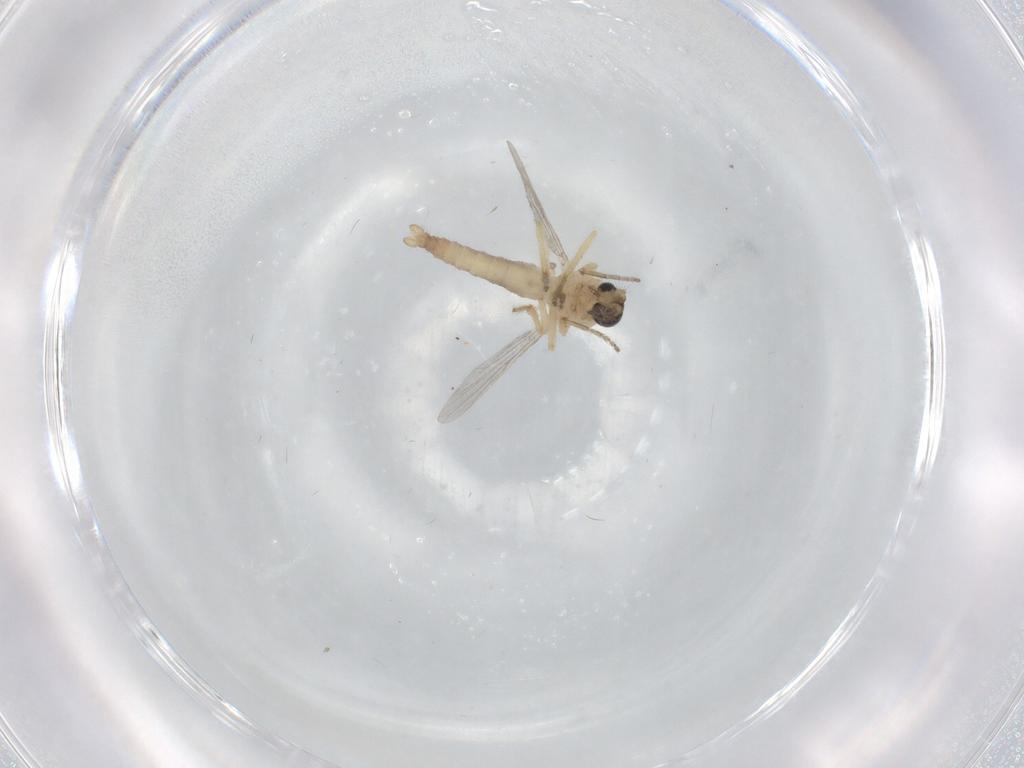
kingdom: Animalia
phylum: Arthropoda
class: Insecta
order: Diptera
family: Ceratopogonidae
